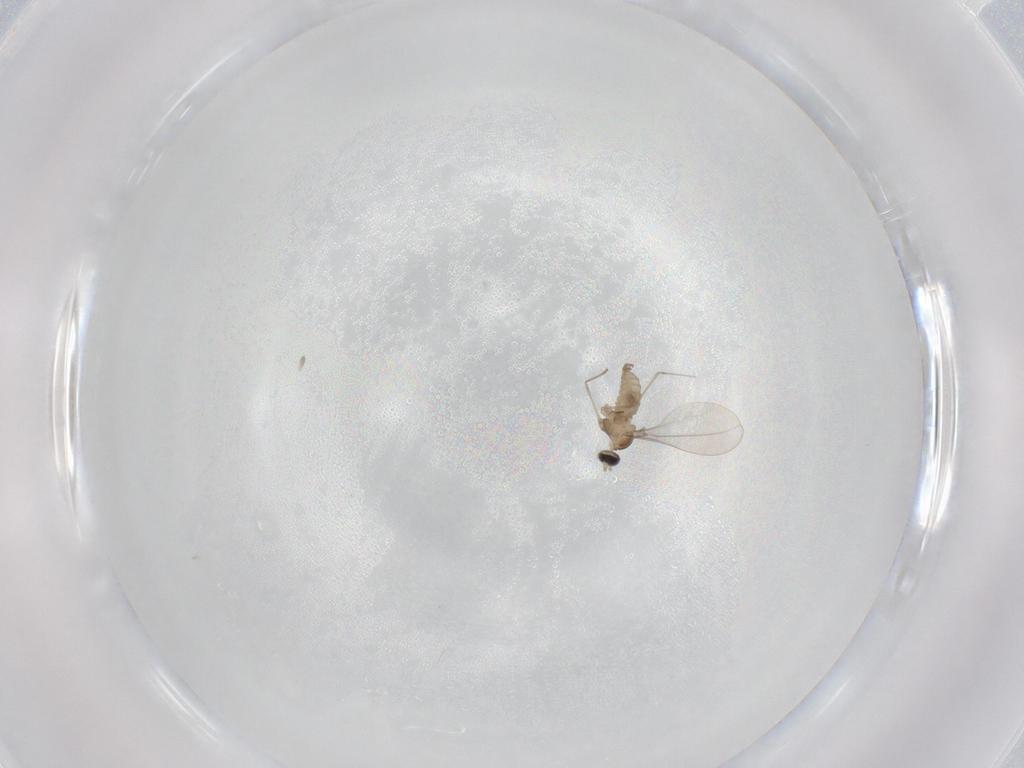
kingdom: Animalia
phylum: Arthropoda
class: Insecta
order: Diptera
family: Cecidomyiidae
